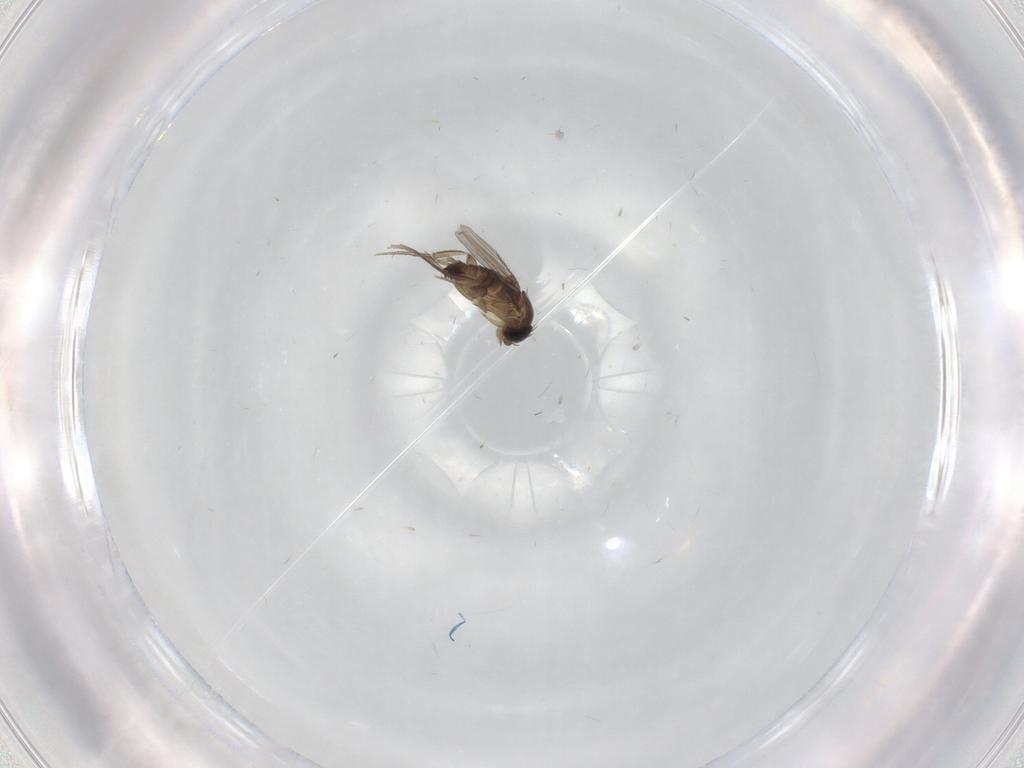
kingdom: Animalia
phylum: Arthropoda
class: Insecta
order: Diptera
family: Phoridae
